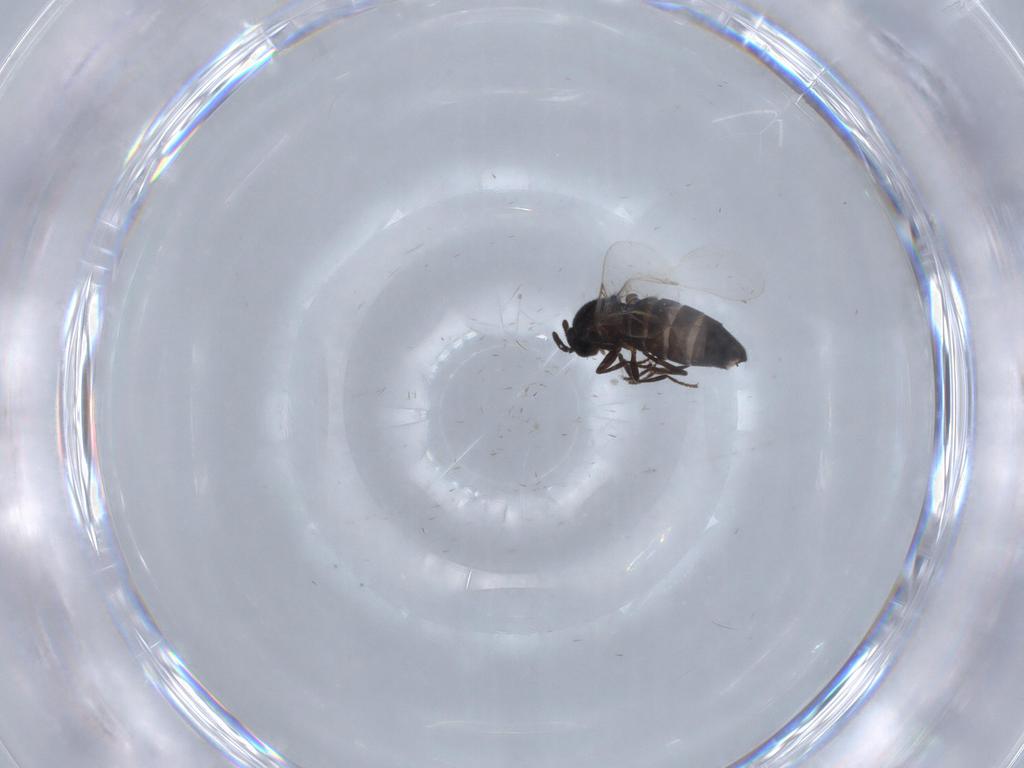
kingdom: Animalia
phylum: Arthropoda
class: Insecta
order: Diptera
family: Scatopsidae
